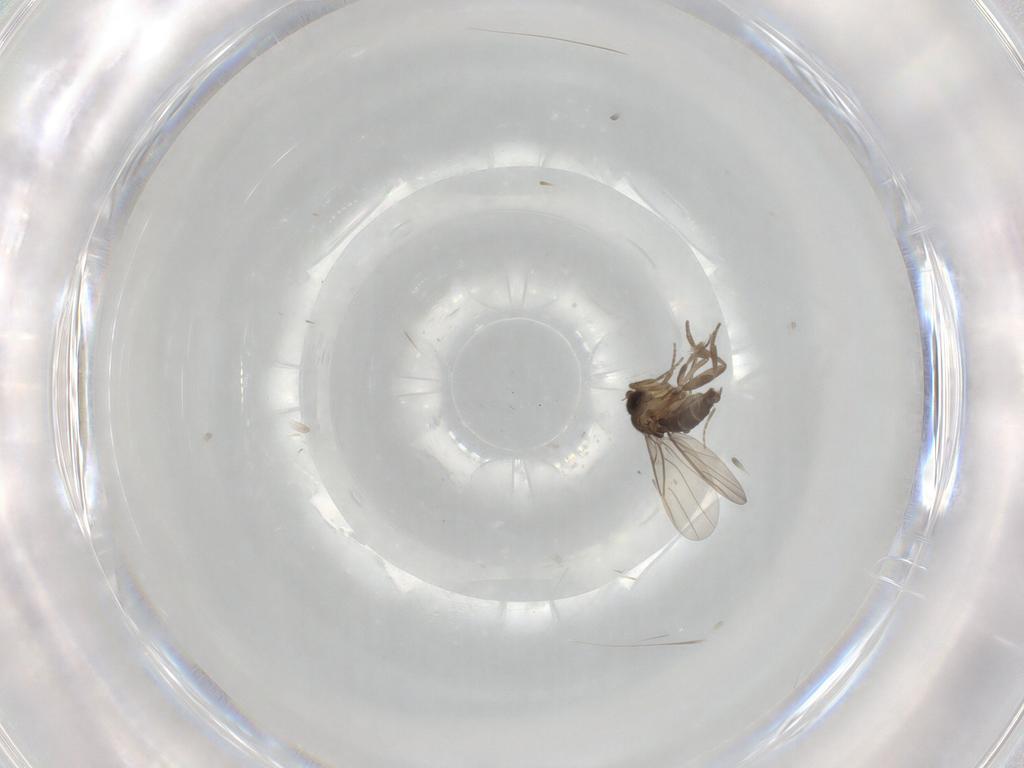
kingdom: Animalia
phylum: Arthropoda
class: Insecta
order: Diptera
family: Phoridae
